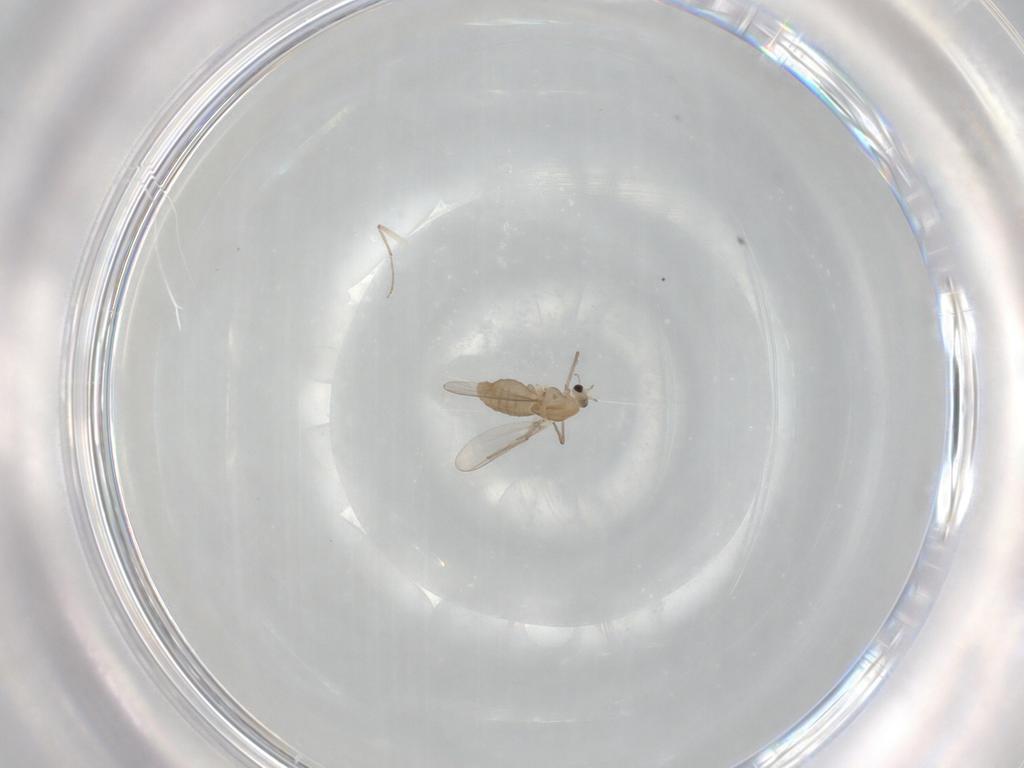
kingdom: Animalia
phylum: Arthropoda
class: Insecta
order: Diptera
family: Chironomidae
